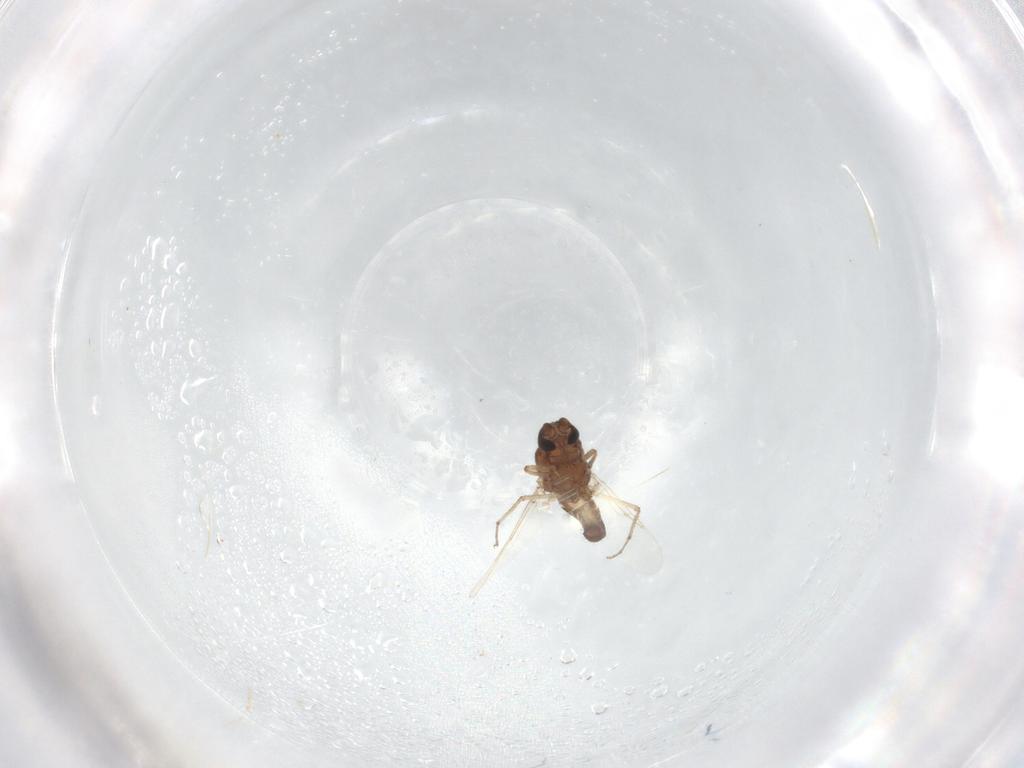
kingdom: Animalia
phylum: Arthropoda
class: Insecta
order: Diptera
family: Ceratopogonidae
